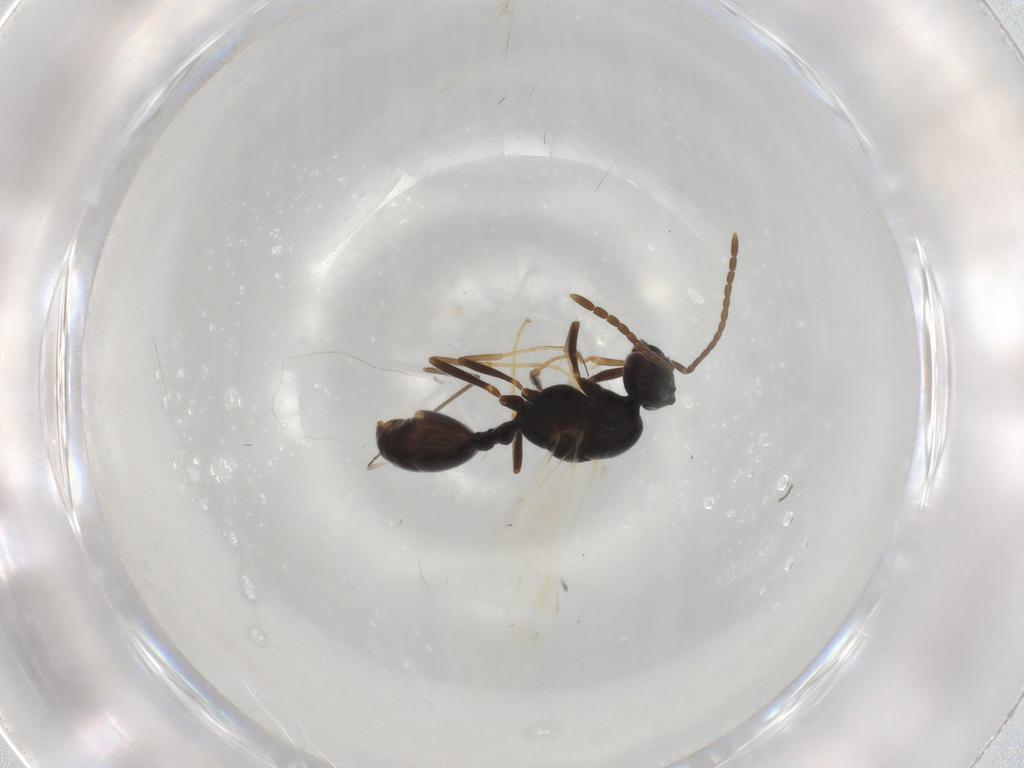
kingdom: Animalia
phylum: Arthropoda
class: Insecta
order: Hymenoptera
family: Formicidae
